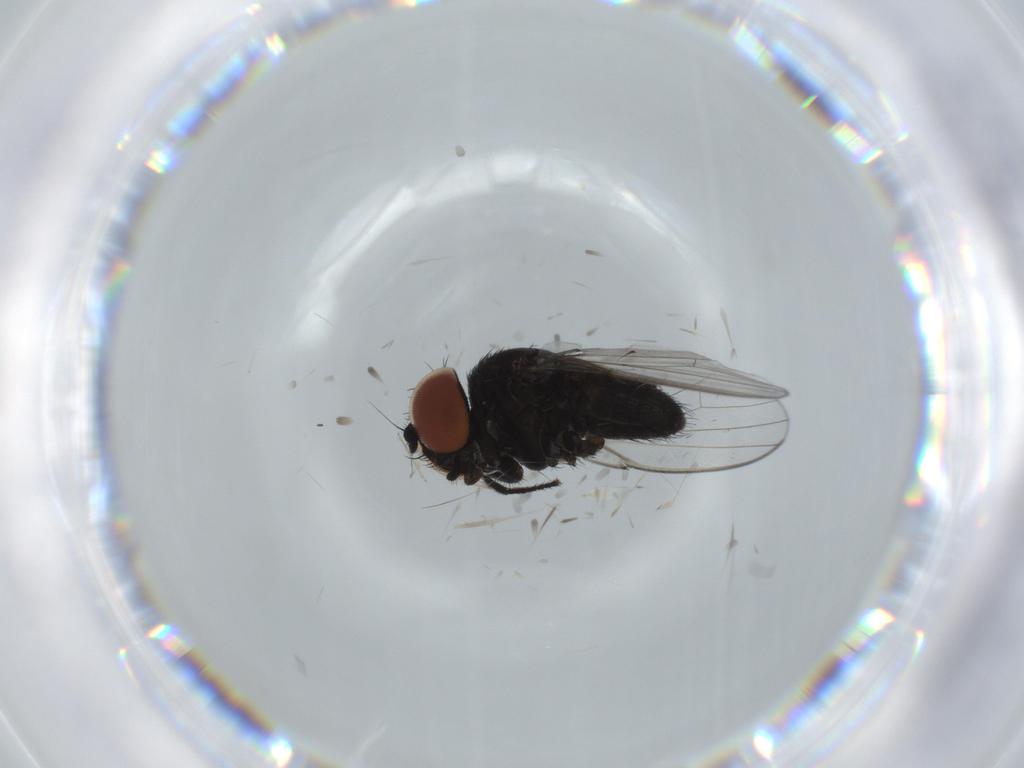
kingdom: Animalia
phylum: Arthropoda
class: Insecta
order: Diptera
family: Milichiidae
